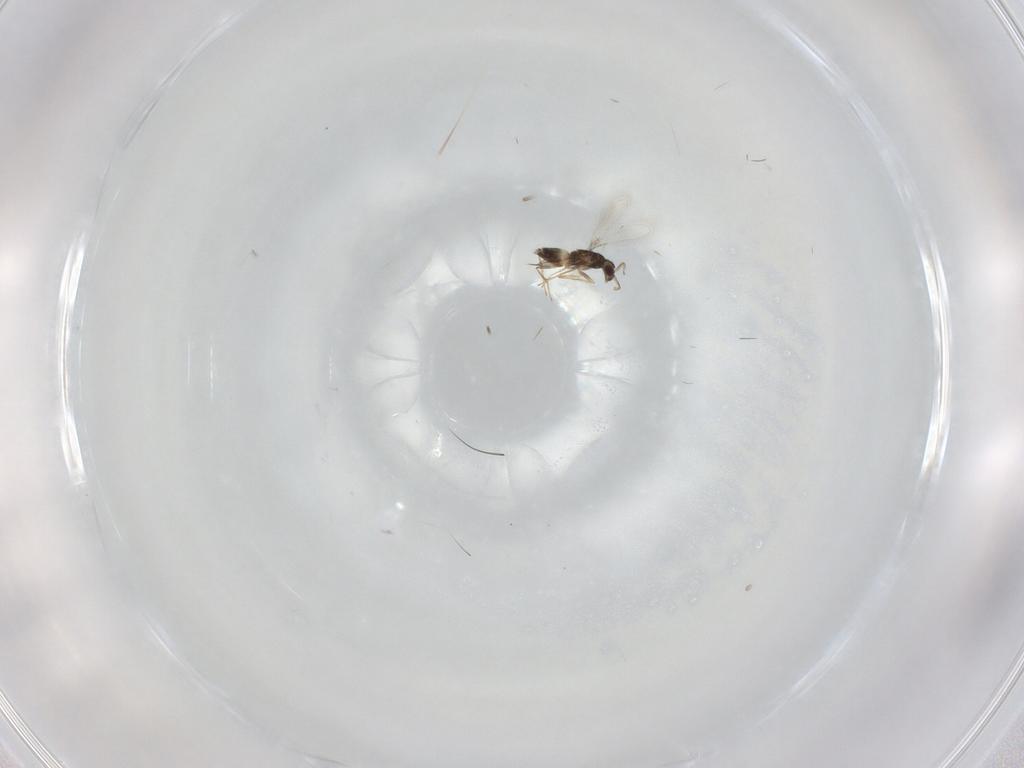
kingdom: Animalia
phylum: Arthropoda
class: Insecta
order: Hymenoptera
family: Mymaridae
